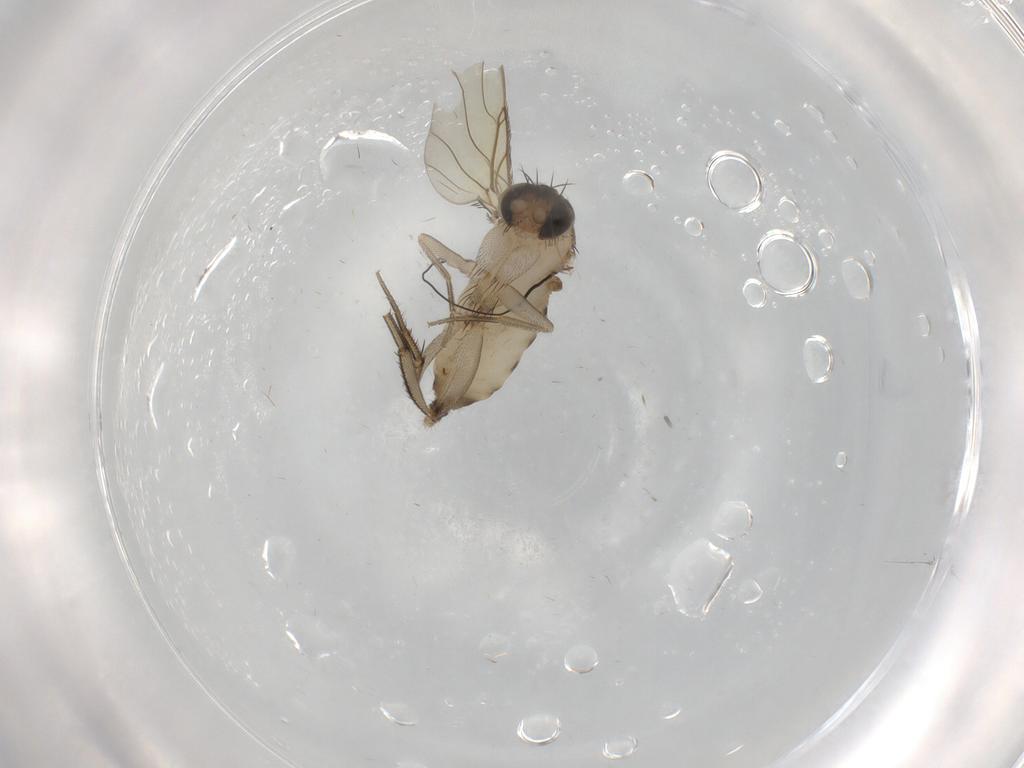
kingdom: Animalia
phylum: Arthropoda
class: Insecta
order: Diptera
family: Phoridae
